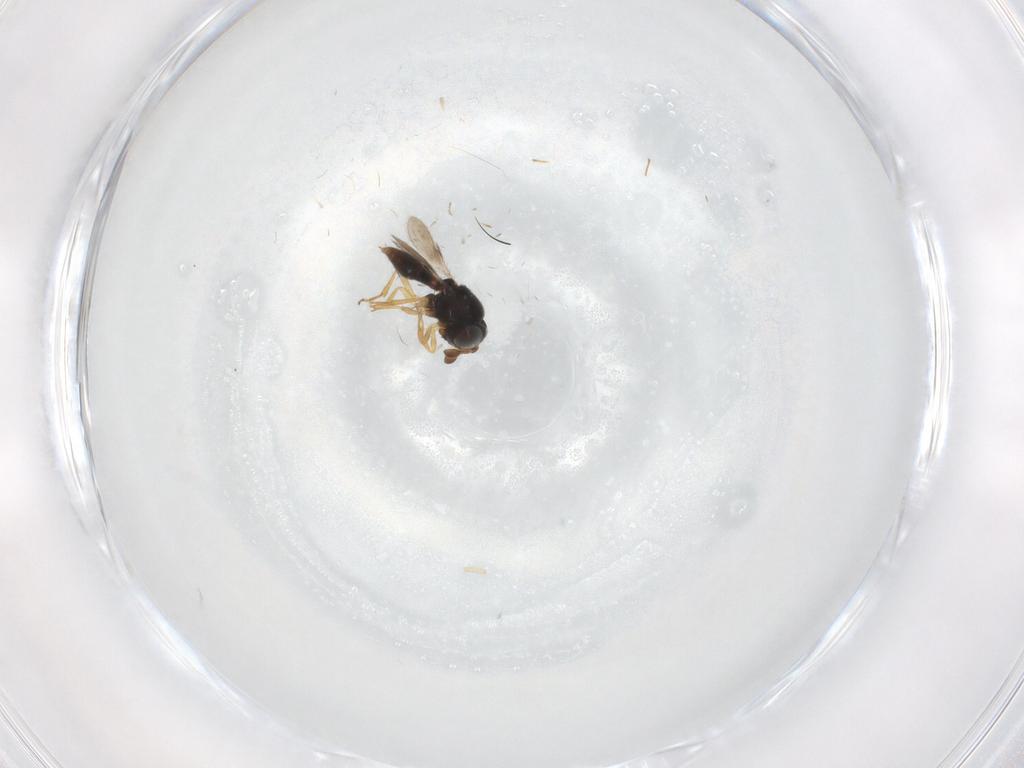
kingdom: Animalia
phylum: Arthropoda
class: Insecta
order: Hymenoptera
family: Scelionidae
